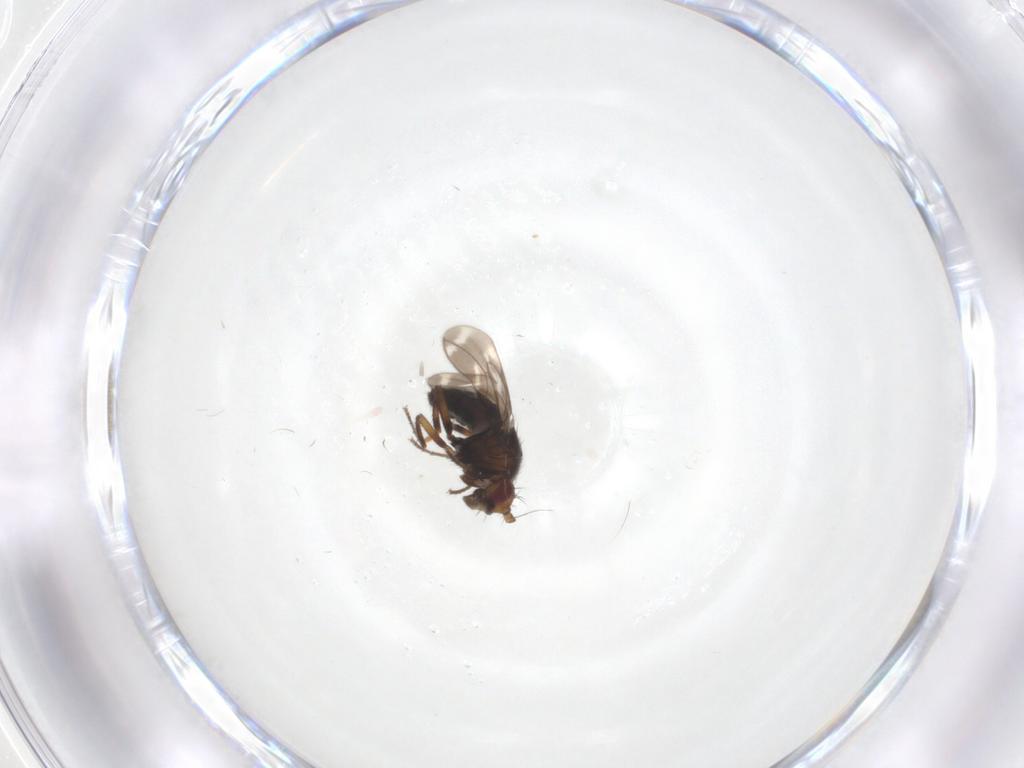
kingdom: Animalia
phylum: Arthropoda
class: Insecta
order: Diptera
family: Sphaeroceridae
